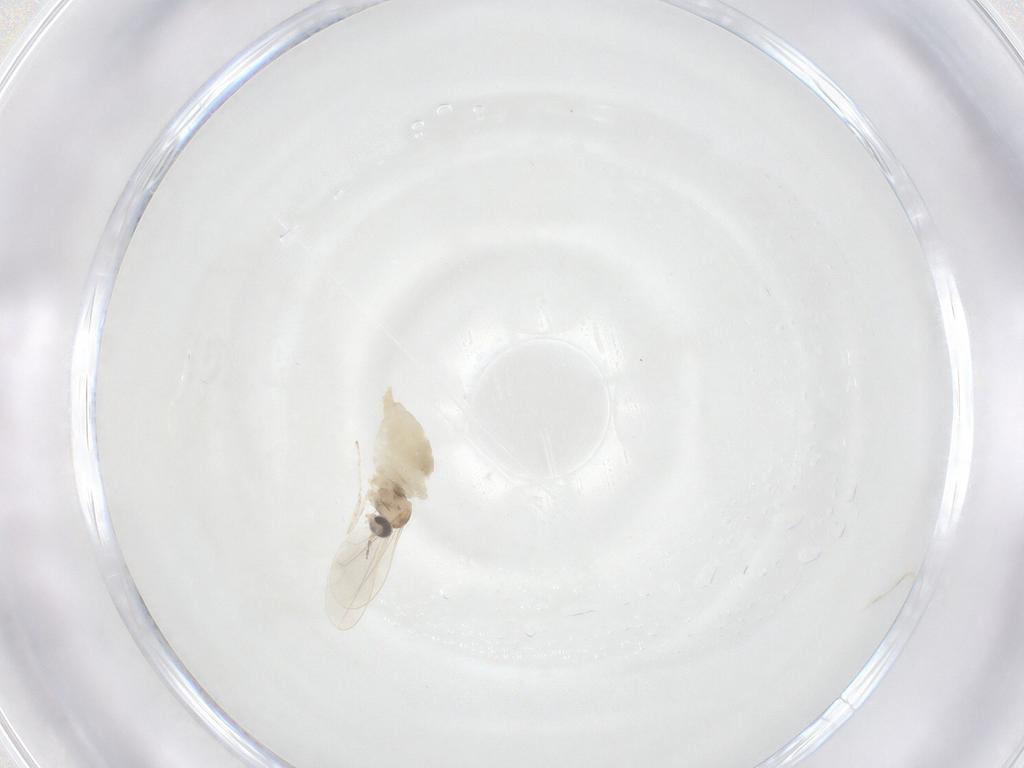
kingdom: Animalia
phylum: Arthropoda
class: Insecta
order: Diptera
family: Cecidomyiidae
